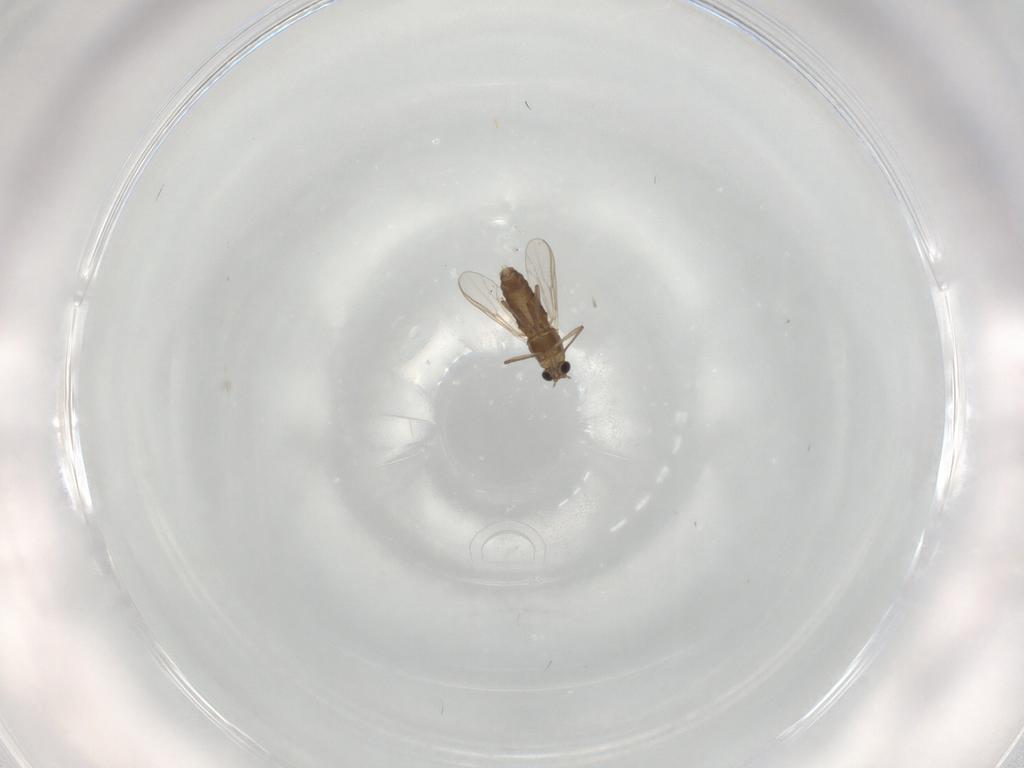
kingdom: Animalia
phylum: Arthropoda
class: Insecta
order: Diptera
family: Chironomidae
